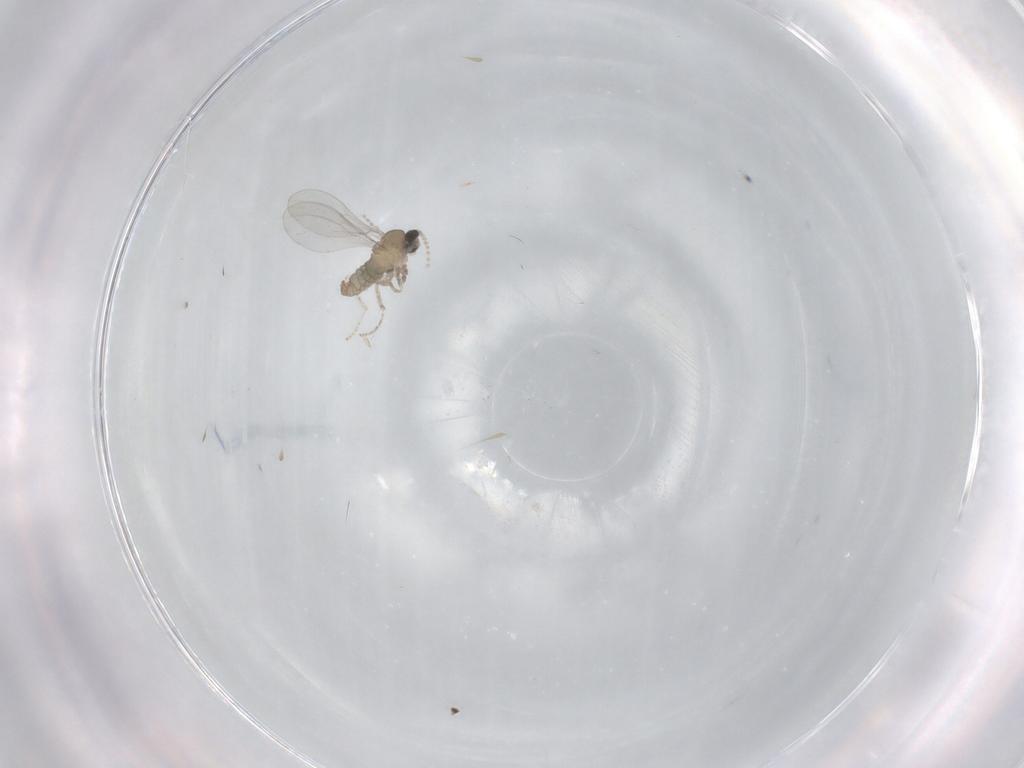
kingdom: Animalia
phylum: Arthropoda
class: Insecta
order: Diptera
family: Cecidomyiidae
